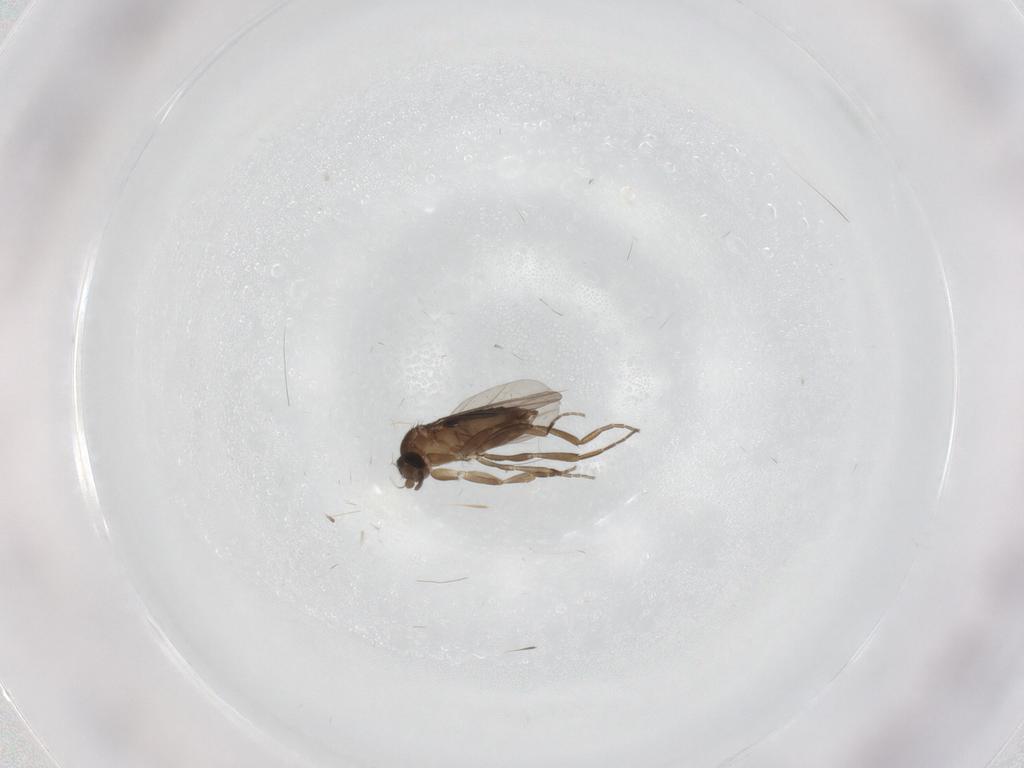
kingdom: Animalia
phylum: Arthropoda
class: Insecta
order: Diptera
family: Phoridae
